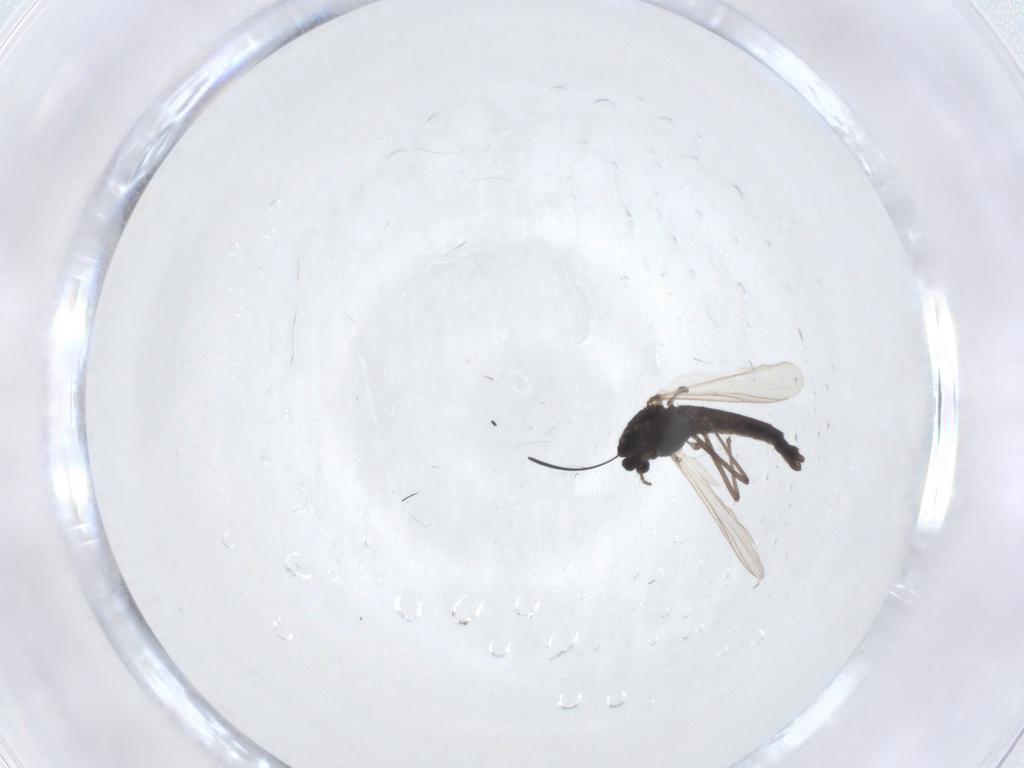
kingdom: Animalia
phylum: Arthropoda
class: Insecta
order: Diptera
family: Chironomidae
